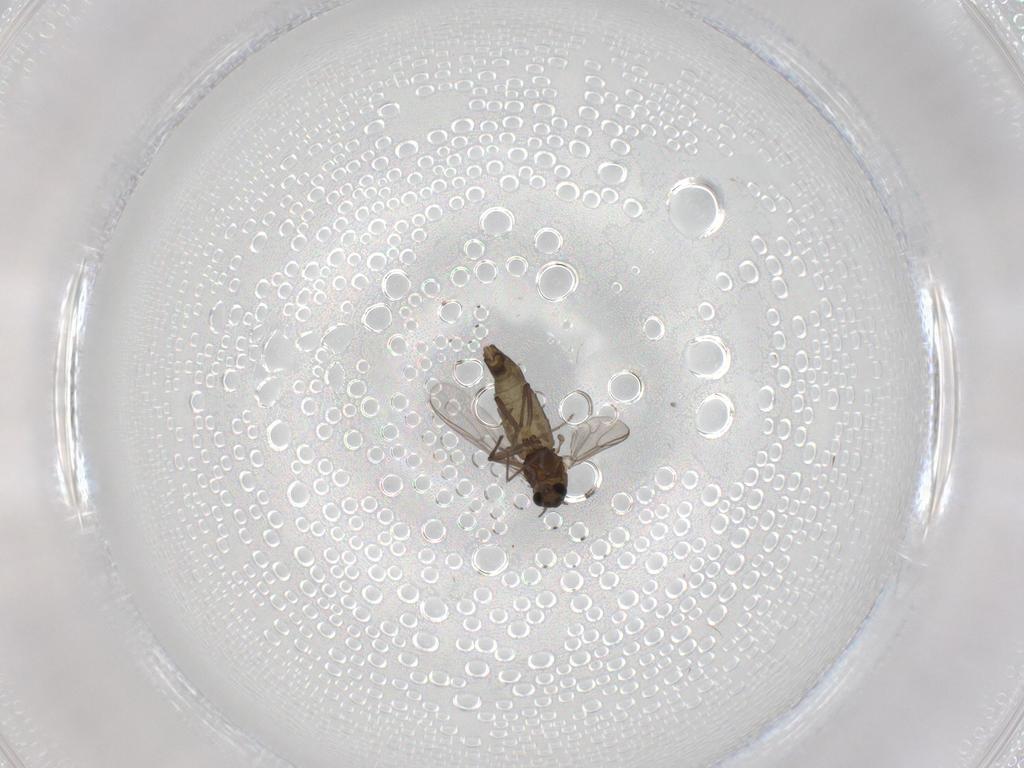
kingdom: Animalia
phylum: Arthropoda
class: Insecta
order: Diptera
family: Chironomidae
